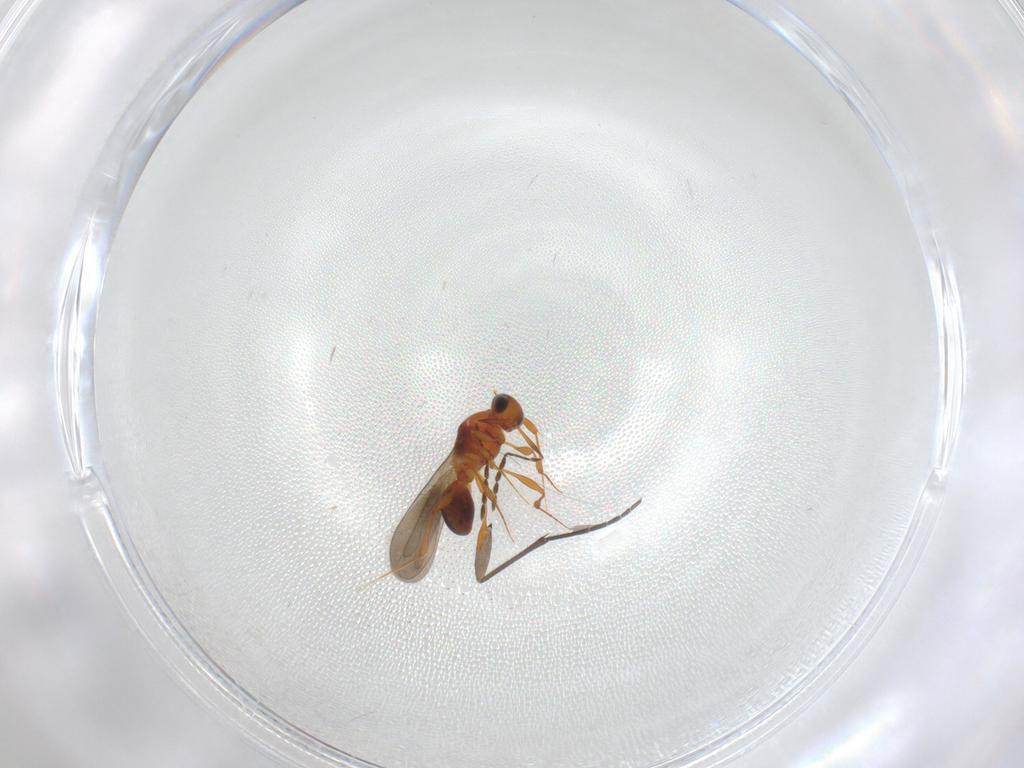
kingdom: Animalia
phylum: Arthropoda
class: Insecta
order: Hymenoptera
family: Platygastridae
